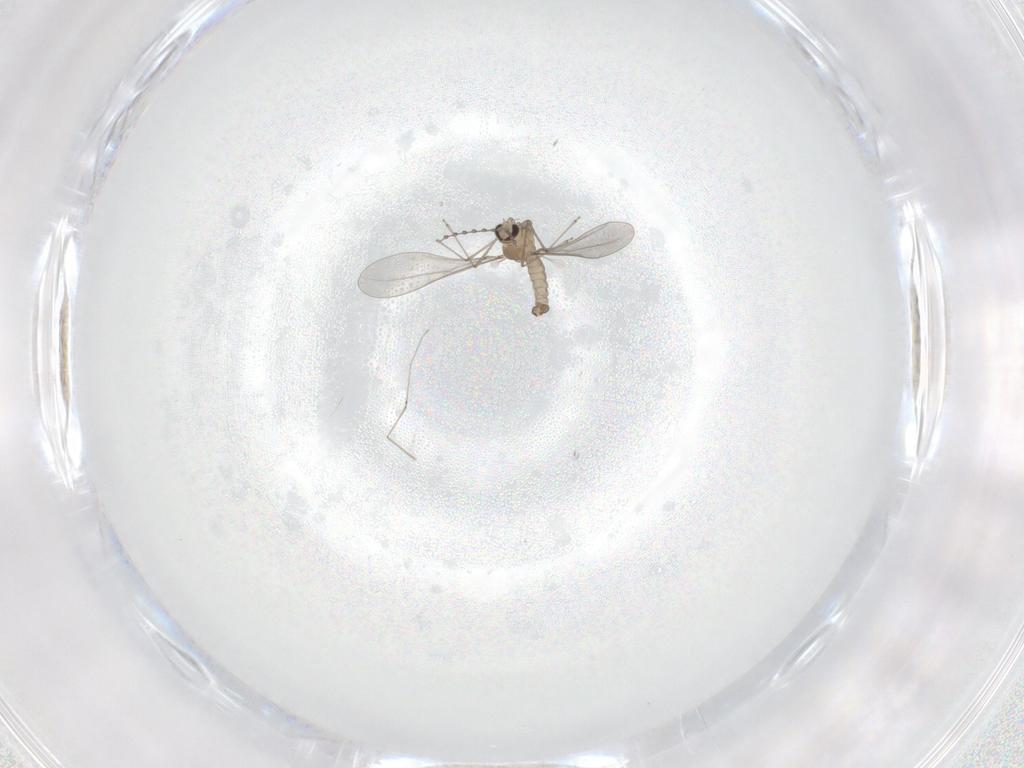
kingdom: Animalia
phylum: Arthropoda
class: Insecta
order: Diptera
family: Cecidomyiidae
